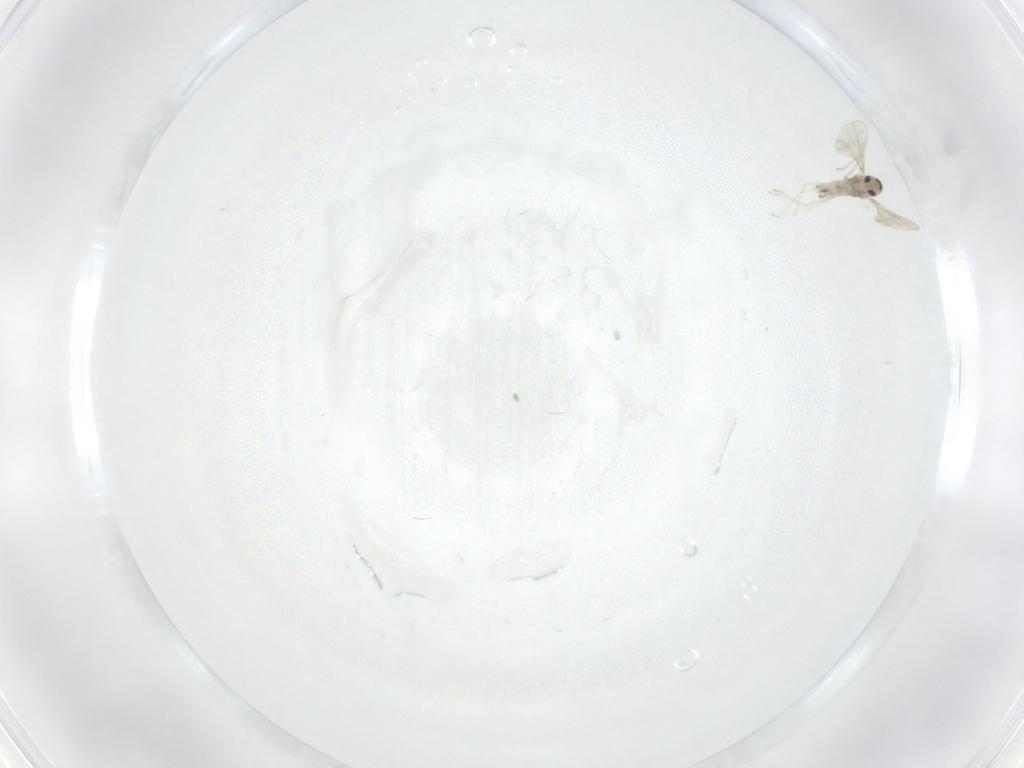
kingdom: Animalia
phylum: Arthropoda
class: Insecta
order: Diptera
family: Cecidomyiidae
